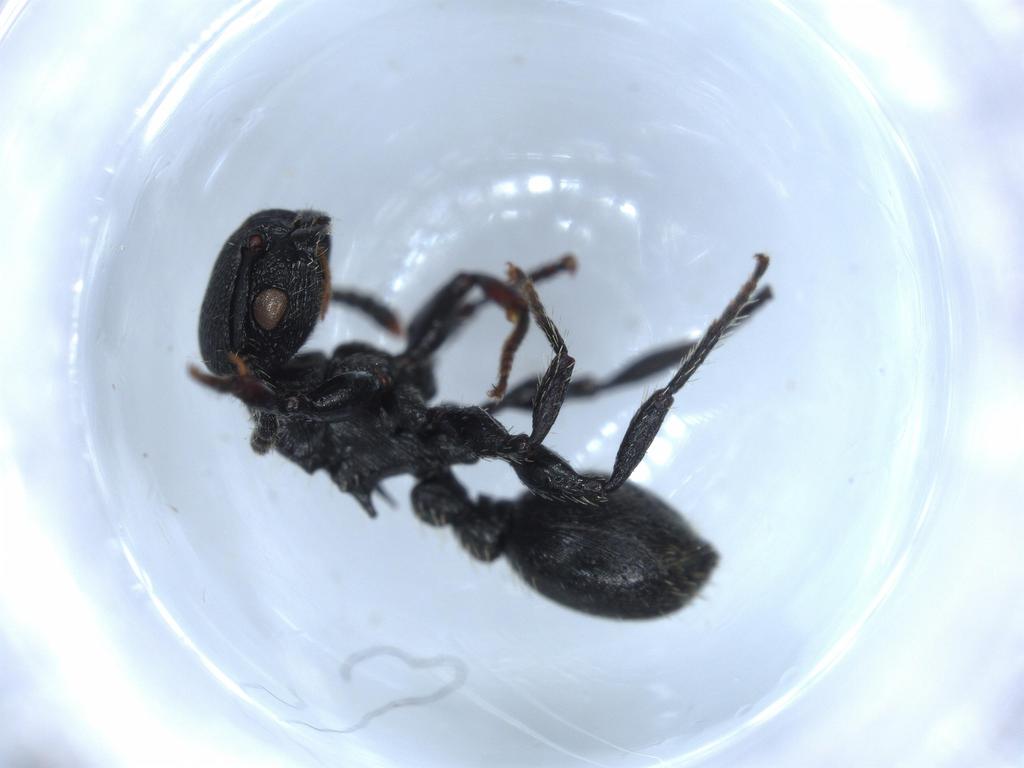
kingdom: Animalia
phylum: Arthropoda
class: Insecta
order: Hymenoptera
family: Formicidae
